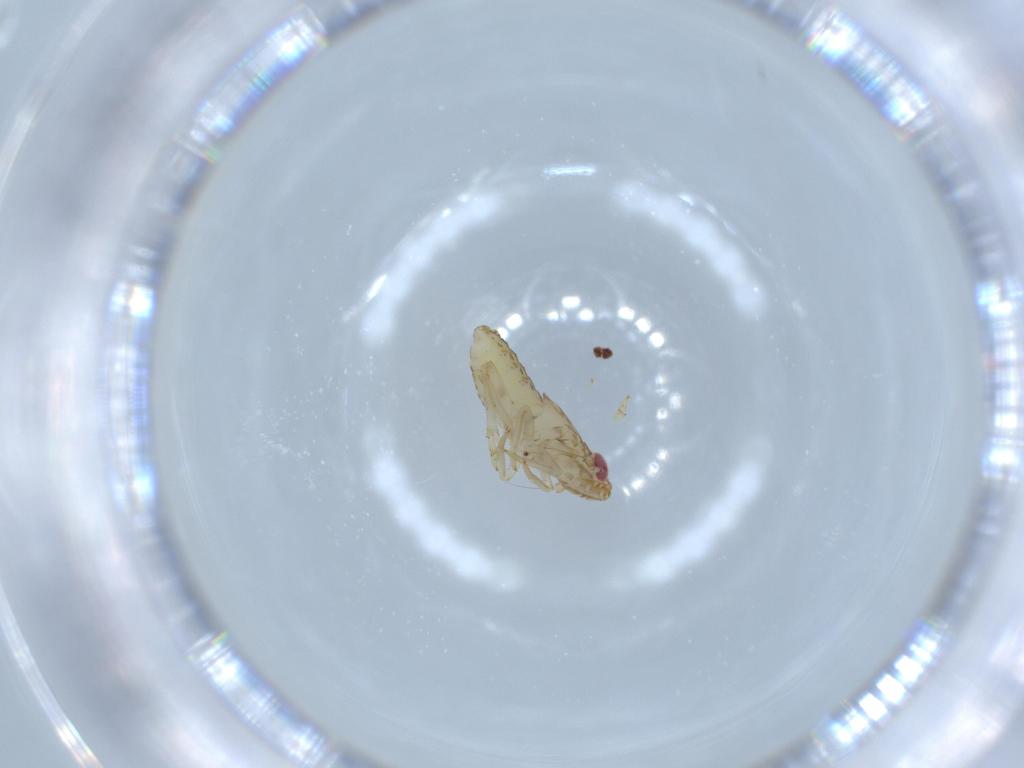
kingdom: Animalia
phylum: Arthropoda
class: Insecta
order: Hemiptera
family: Delphacidae
